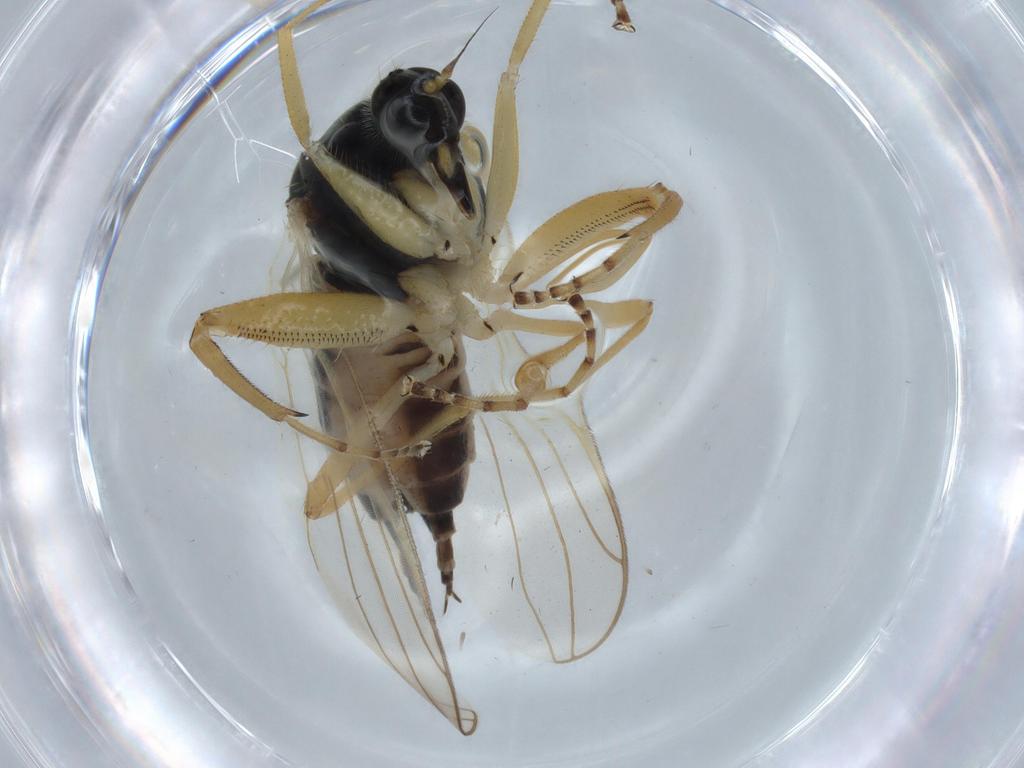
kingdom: Animalia
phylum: Arthropoda
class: Insecta
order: Diptera
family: Hybotidae
